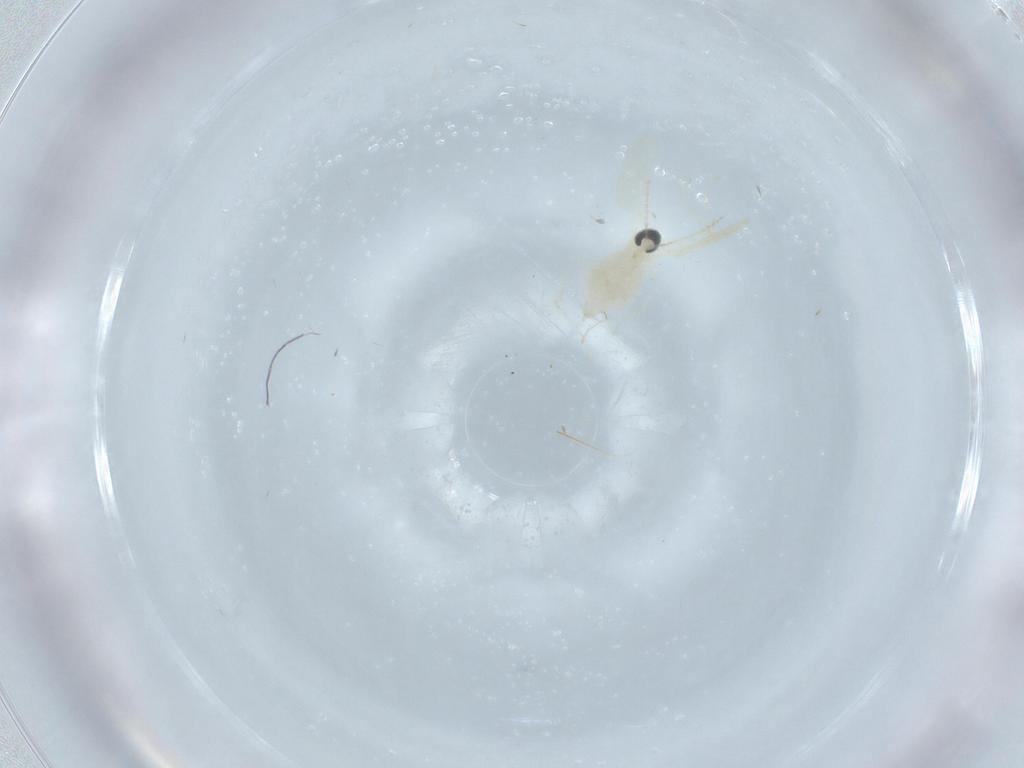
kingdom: Animalia
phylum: Arthropoda
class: Insecta
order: Diptera
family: Cecidomyiidae
